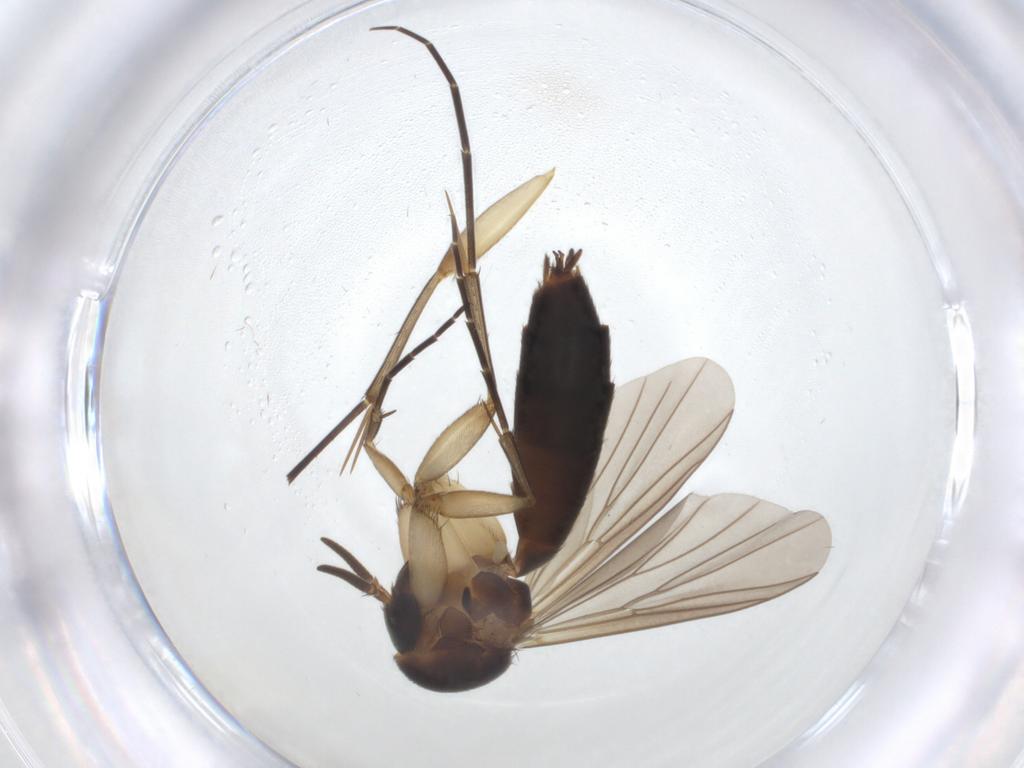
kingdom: Animalia
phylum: Arthropoda
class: Insecta
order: Diptera
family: Mycetophilidae
